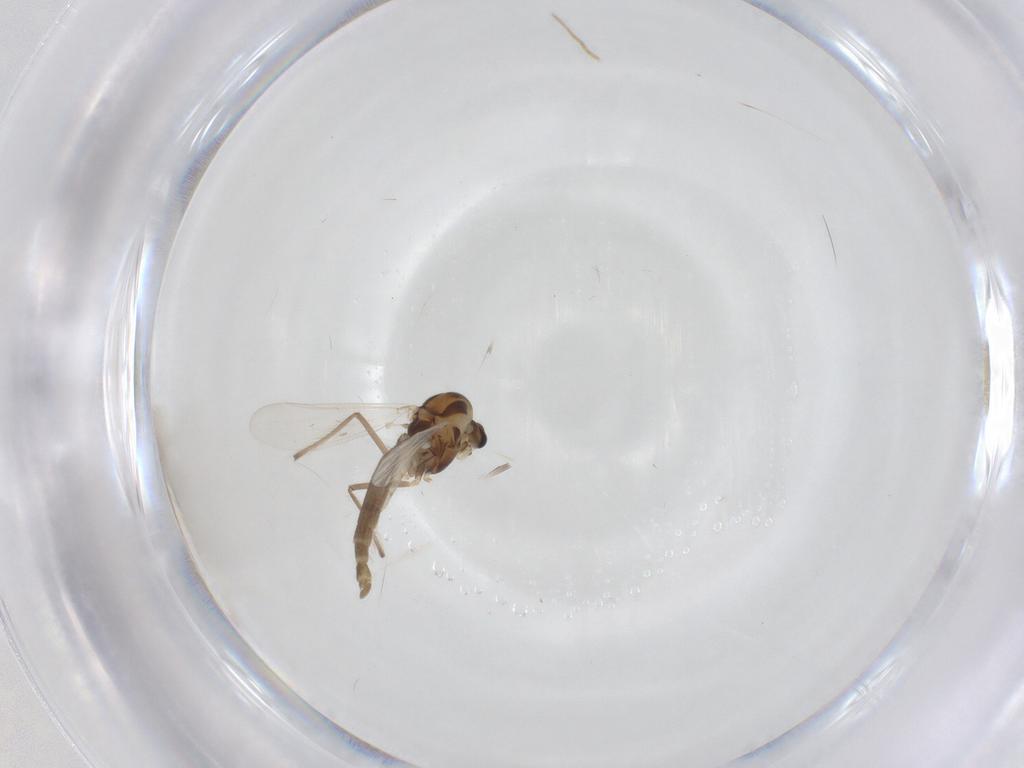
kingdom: Animalia
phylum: Arthropoda
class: Insecta
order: Diptera
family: Chironomidae
